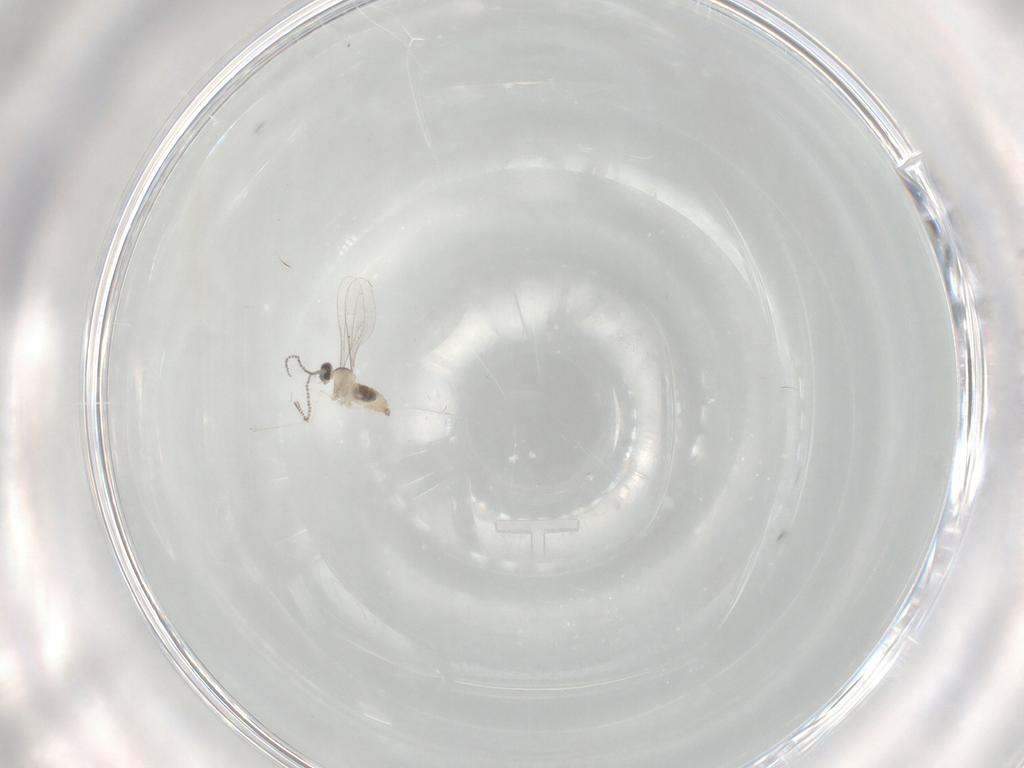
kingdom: Animalia
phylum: Arthropoda
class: Insecta
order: Diptera
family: Cecidomyiidae
